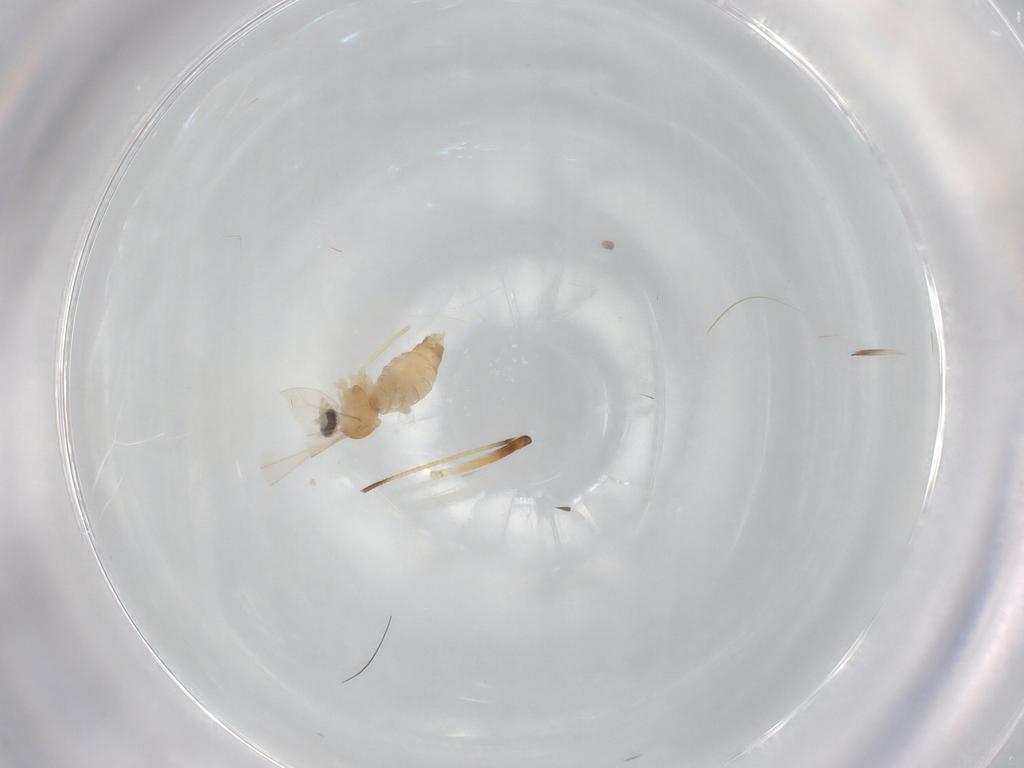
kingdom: Animalia
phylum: Arthropoda
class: Insecta
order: Diptera
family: Cecidomyiidae
